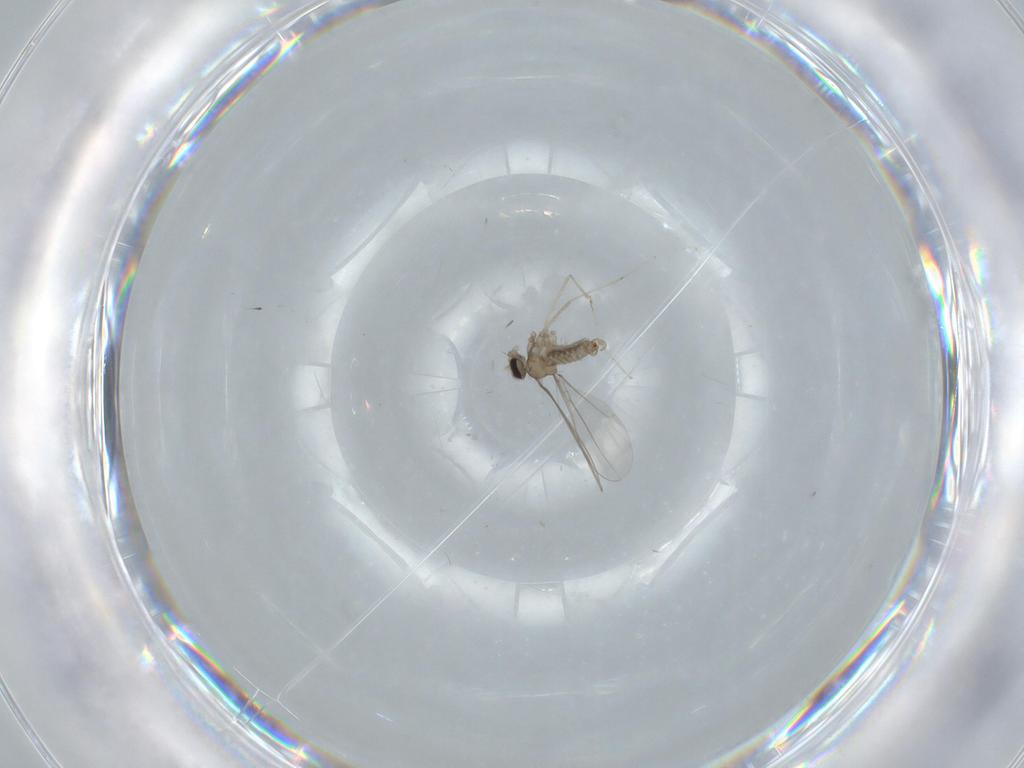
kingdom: Animalia
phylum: Arthropoda
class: Insecta
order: Diptera
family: Cecidomyiidae
